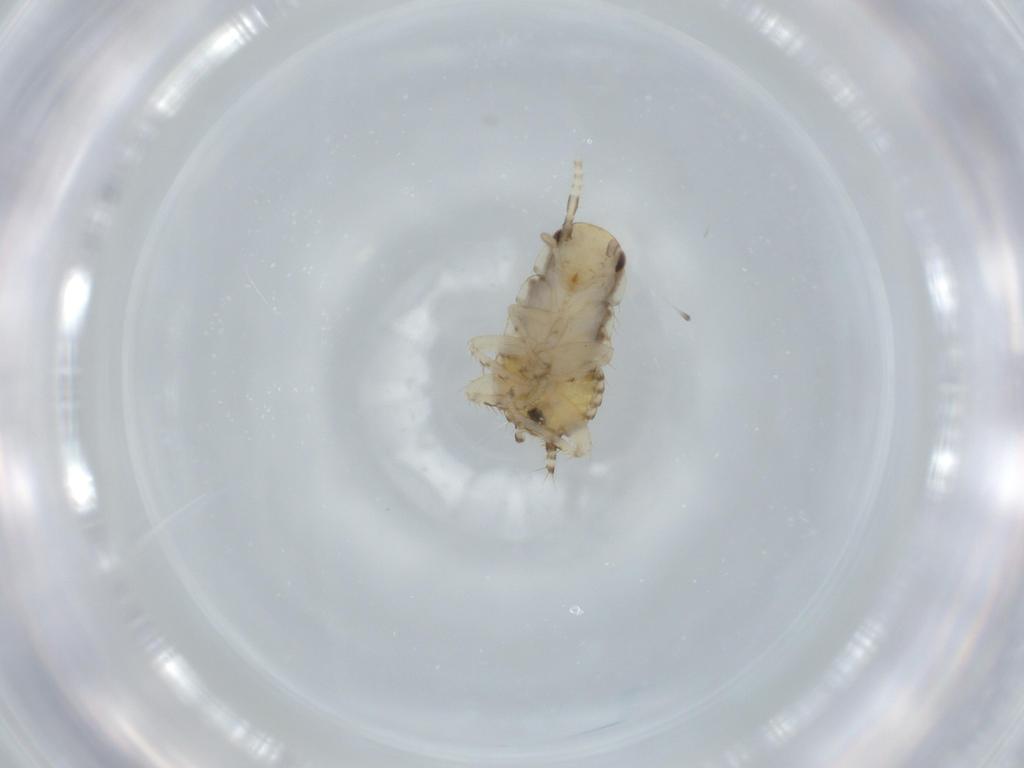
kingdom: Animalia
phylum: Arthropoda
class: Insecta
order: Blattodea
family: Ectobiidae
